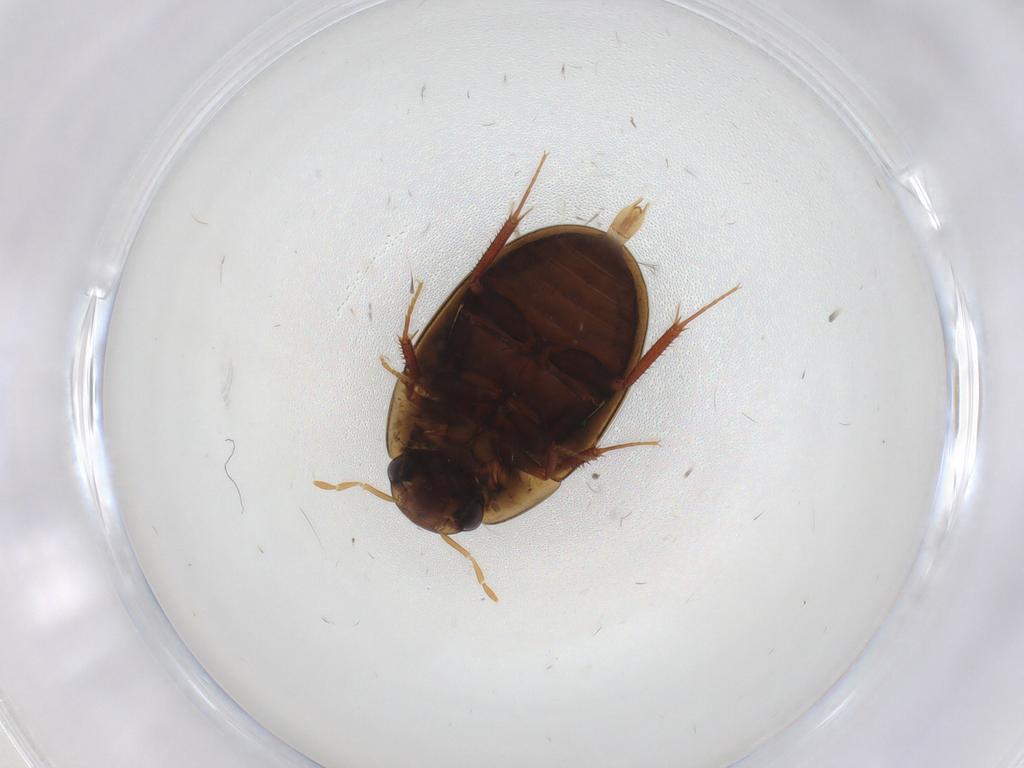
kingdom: Animalia
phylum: Arthropoda
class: Insecta
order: Coleoptera
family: Hydrophilidae
